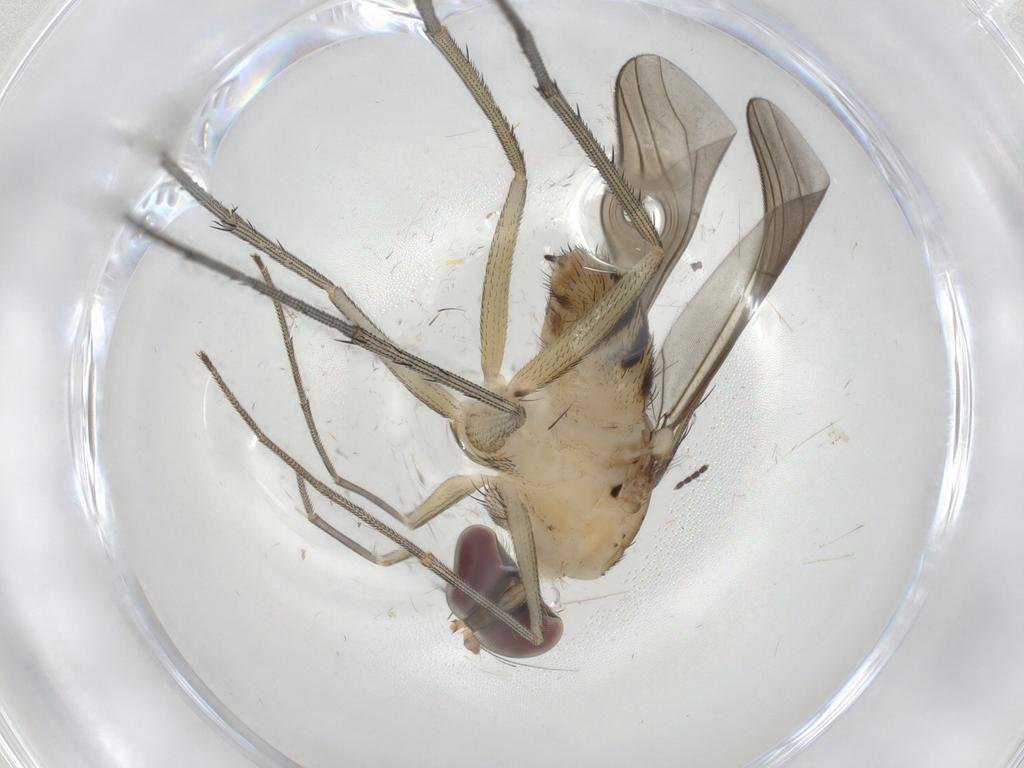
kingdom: Animalia
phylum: Arthropoda
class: Insecta
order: Diptera
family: Dolichopodidae
